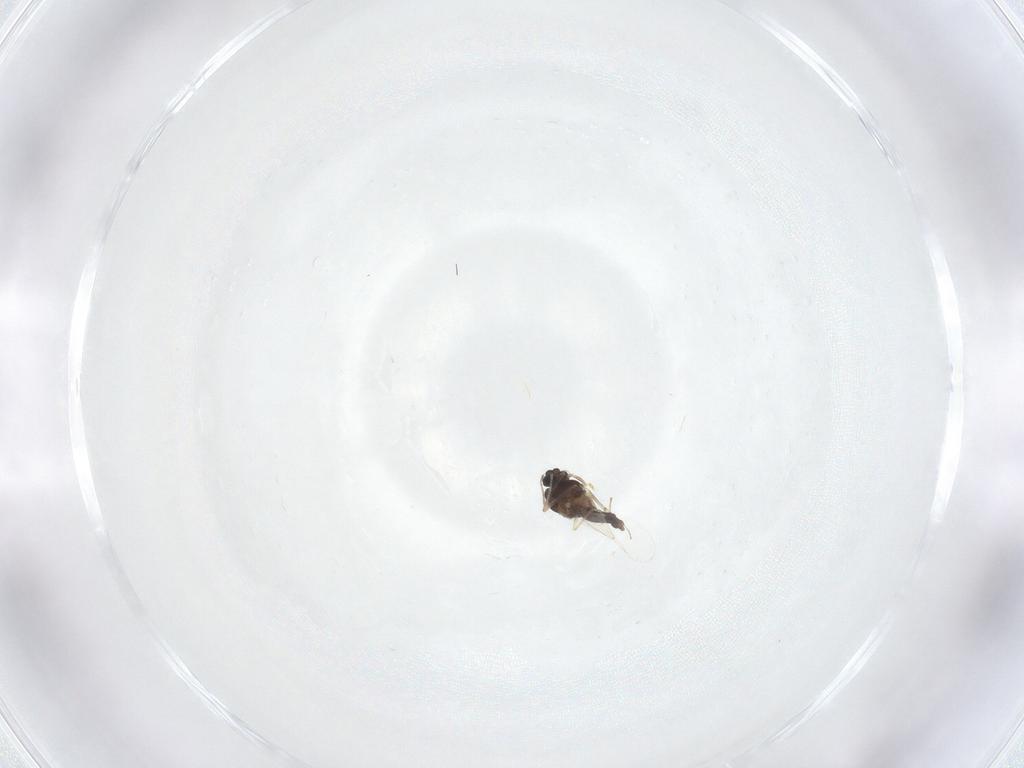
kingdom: Animalia
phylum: Arthropoda
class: Insecta
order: Diptera
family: Chironomidae
